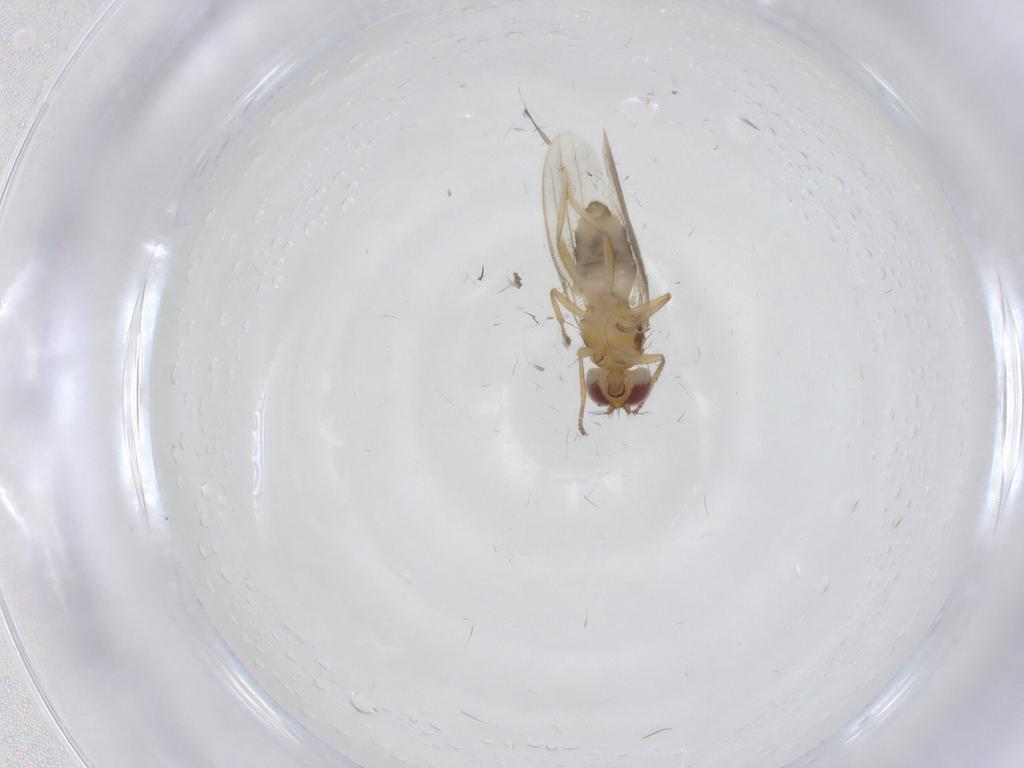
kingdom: Animalia
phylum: Arthropoda
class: Insecta
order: Diptera
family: Periscelididae
